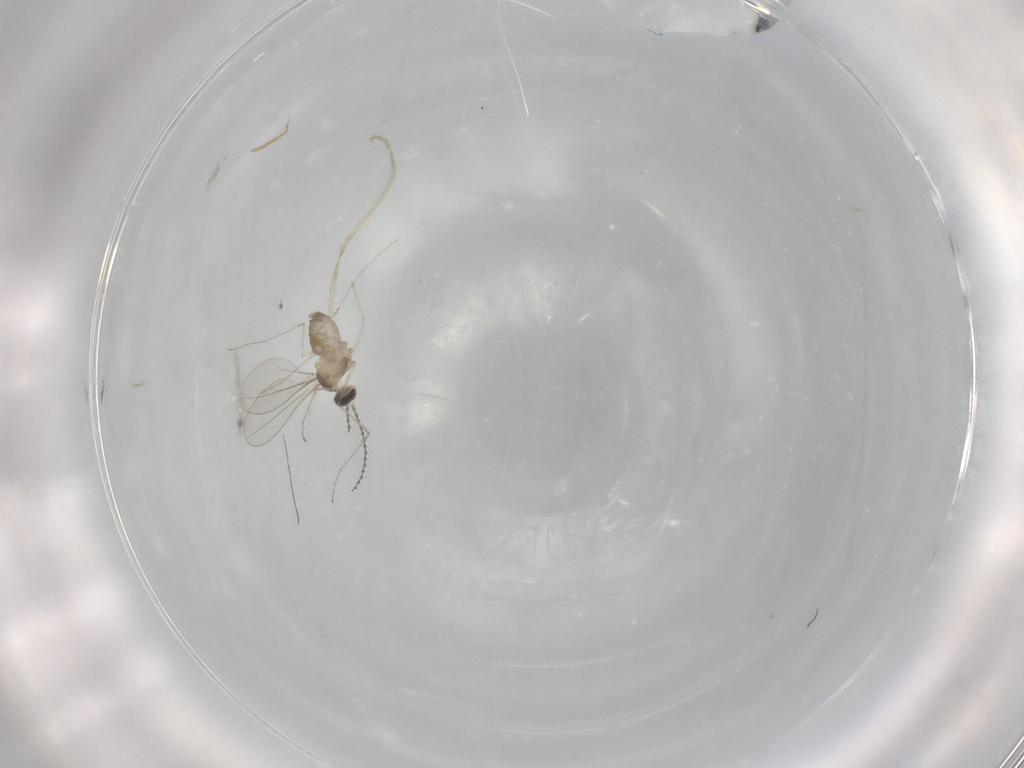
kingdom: Animalia
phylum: Arthropoda
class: Insecta
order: Diptera
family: Cecidomyiidae
